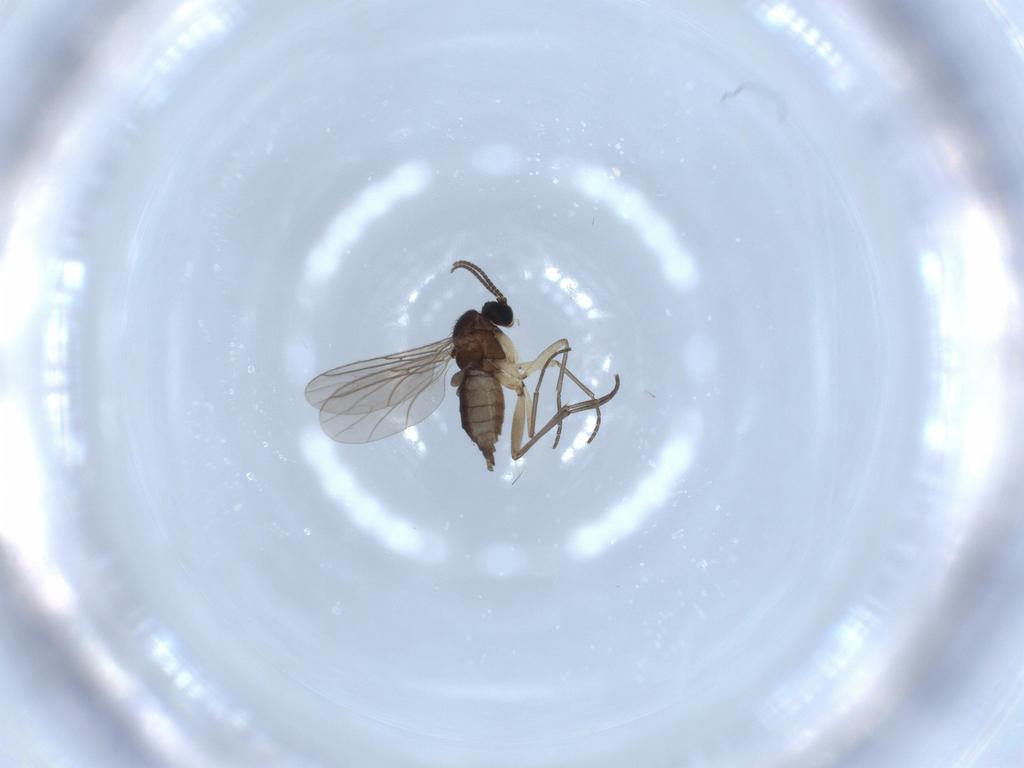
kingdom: Animalia
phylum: Arthropoda
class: Insecta
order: Diptera
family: Sciaridae
